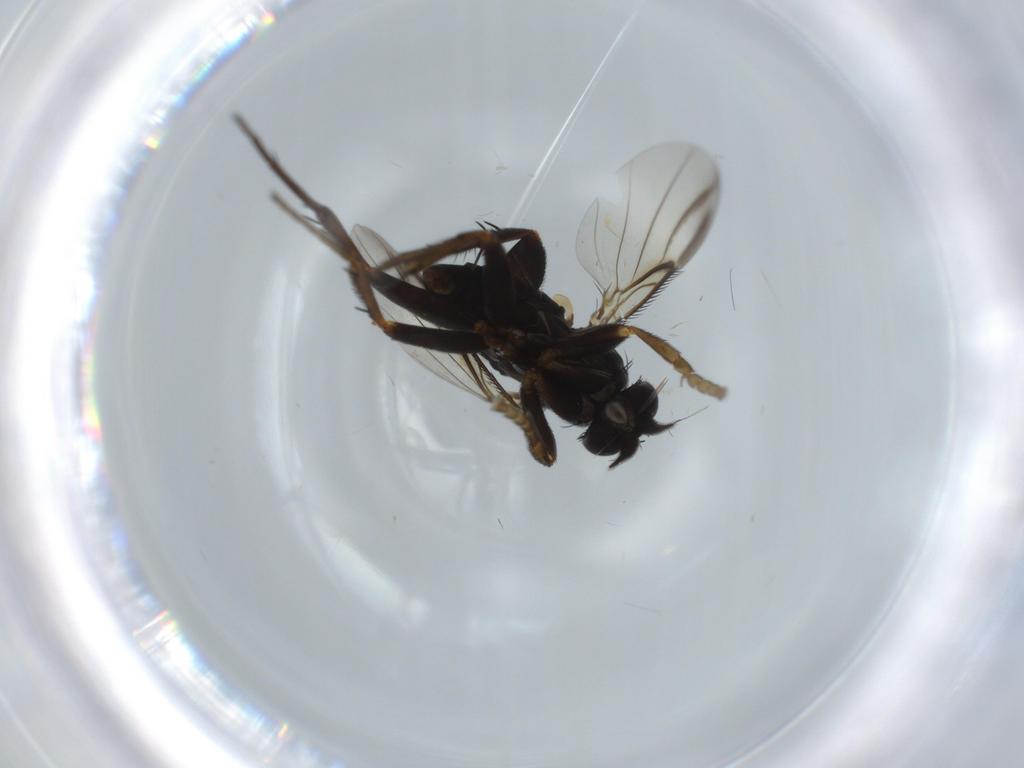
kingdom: Animalia
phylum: Arthropoda
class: Insecta
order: Diptera
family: Phoridae
